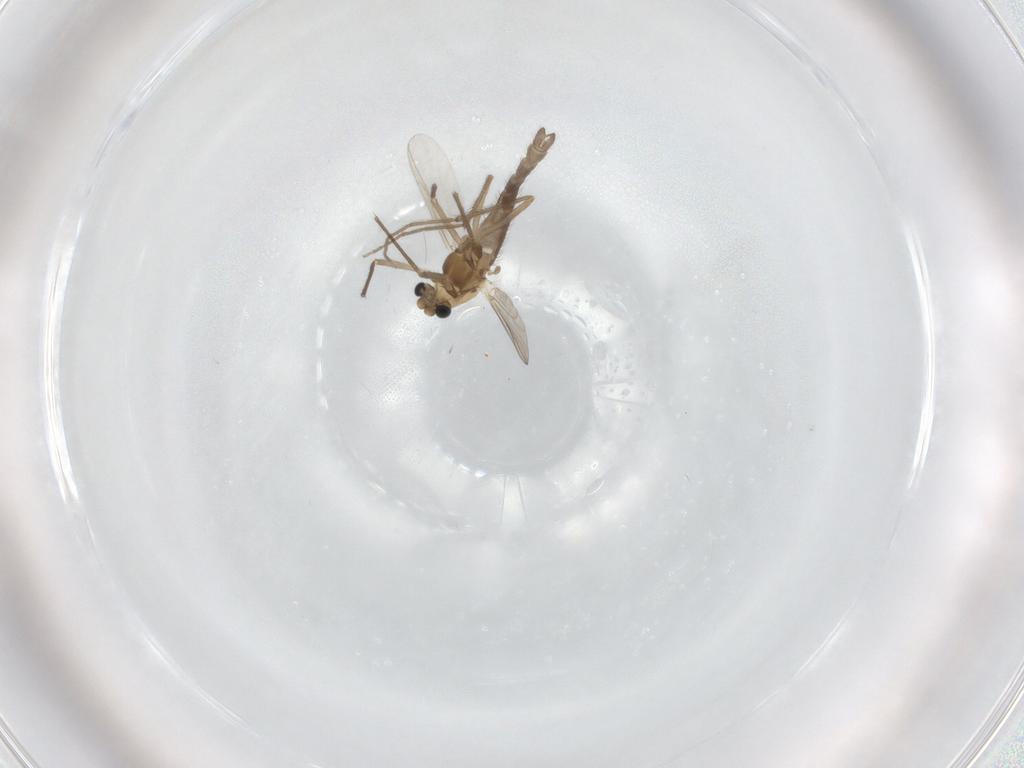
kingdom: Animalia
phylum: Arthropoda
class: Insecta
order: Diptera
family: Chironomidae
